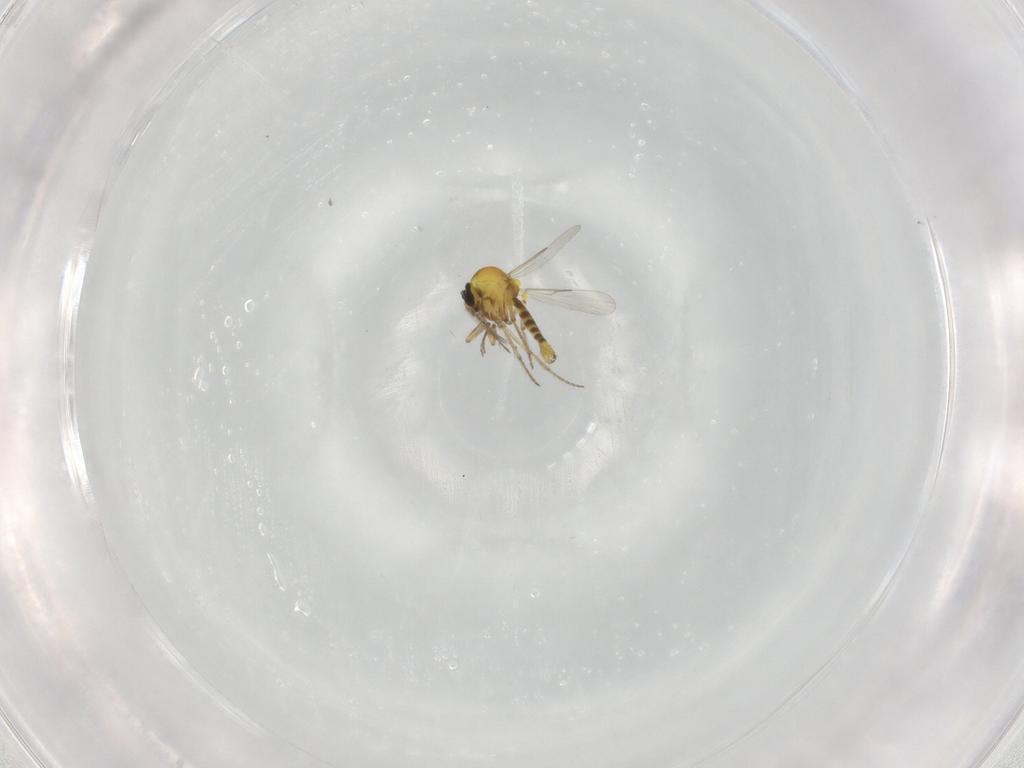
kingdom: Animalia
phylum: Arthropoda
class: Insecta
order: Diptera
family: Ceratopogonidae
